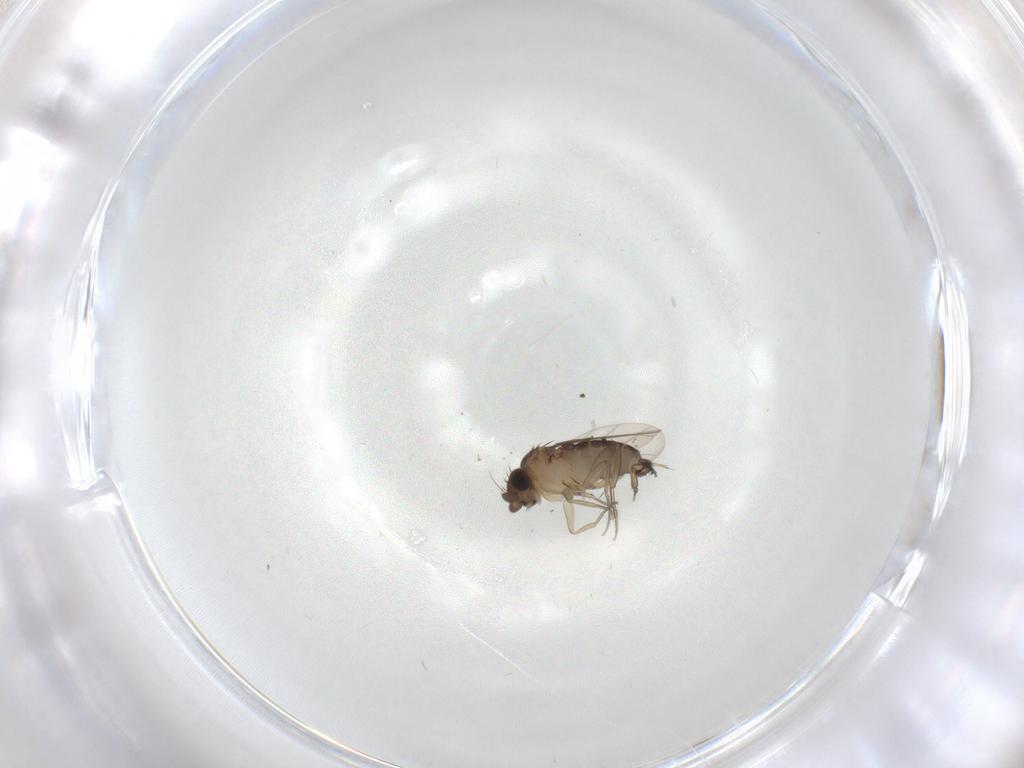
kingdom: Animalia
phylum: Arthropoda
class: Insecta
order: Diptera
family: Phoridae
